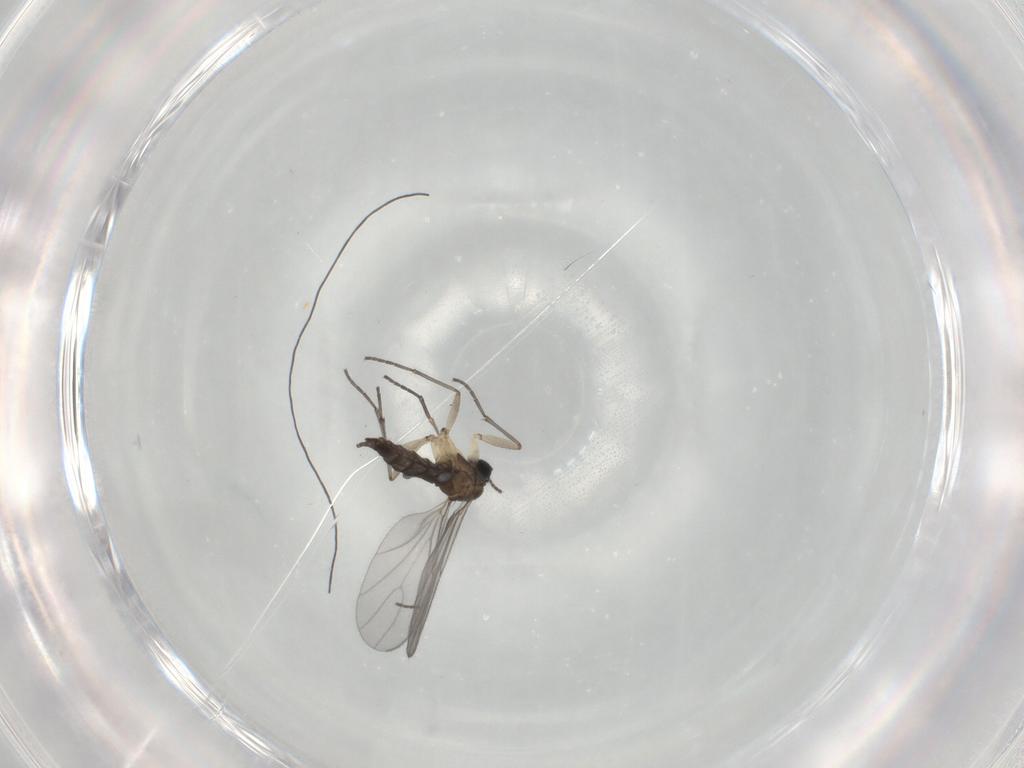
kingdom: Animalia
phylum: Arthropoda
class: Insecta
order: Diptera
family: Sciaridae
